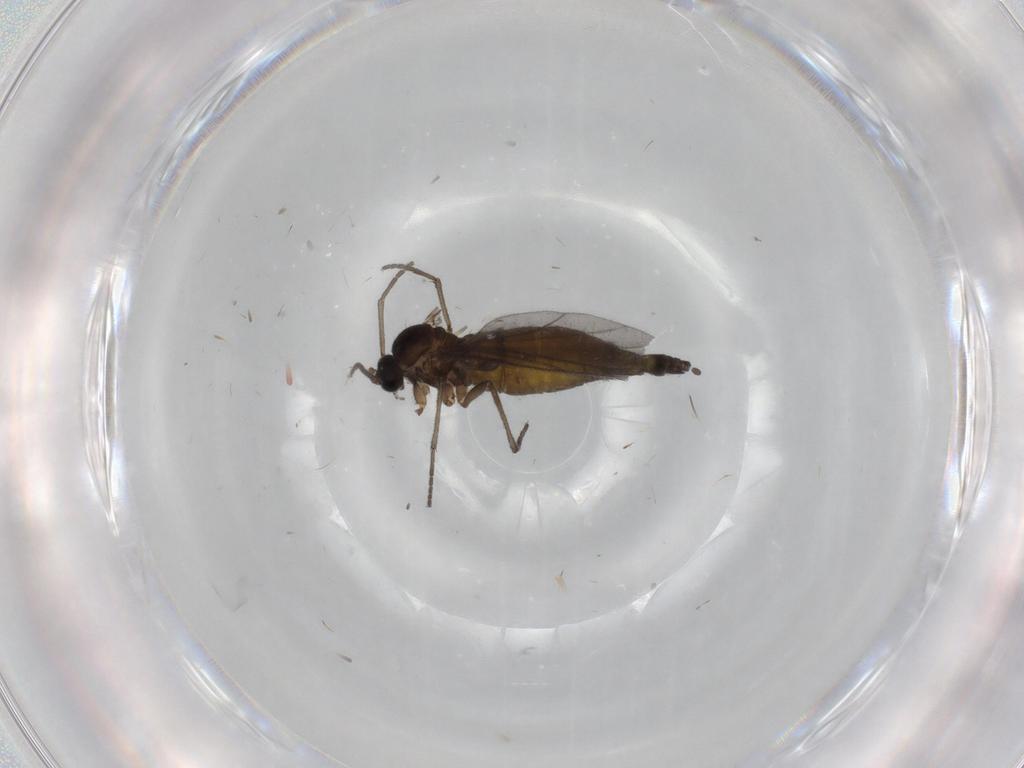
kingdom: Animalia
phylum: Arthropoda
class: Insecta
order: Diptera
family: Sciaridae
